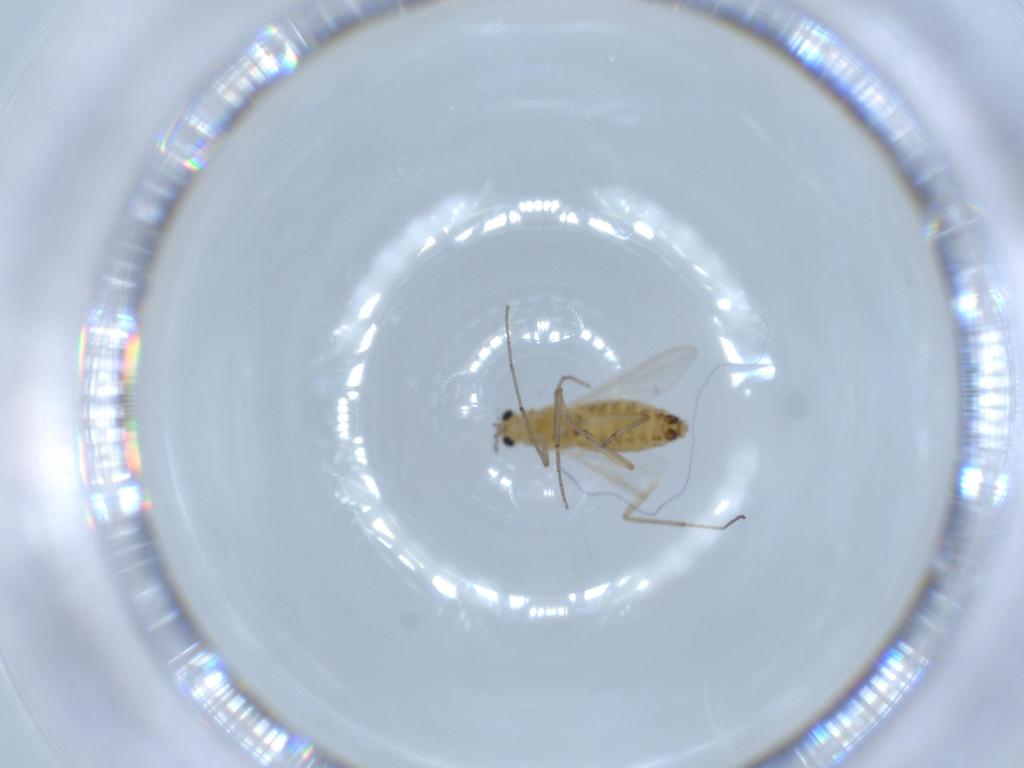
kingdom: Animalia
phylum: Arthropoda
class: Insecta
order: Diptera
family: Chironomidae
